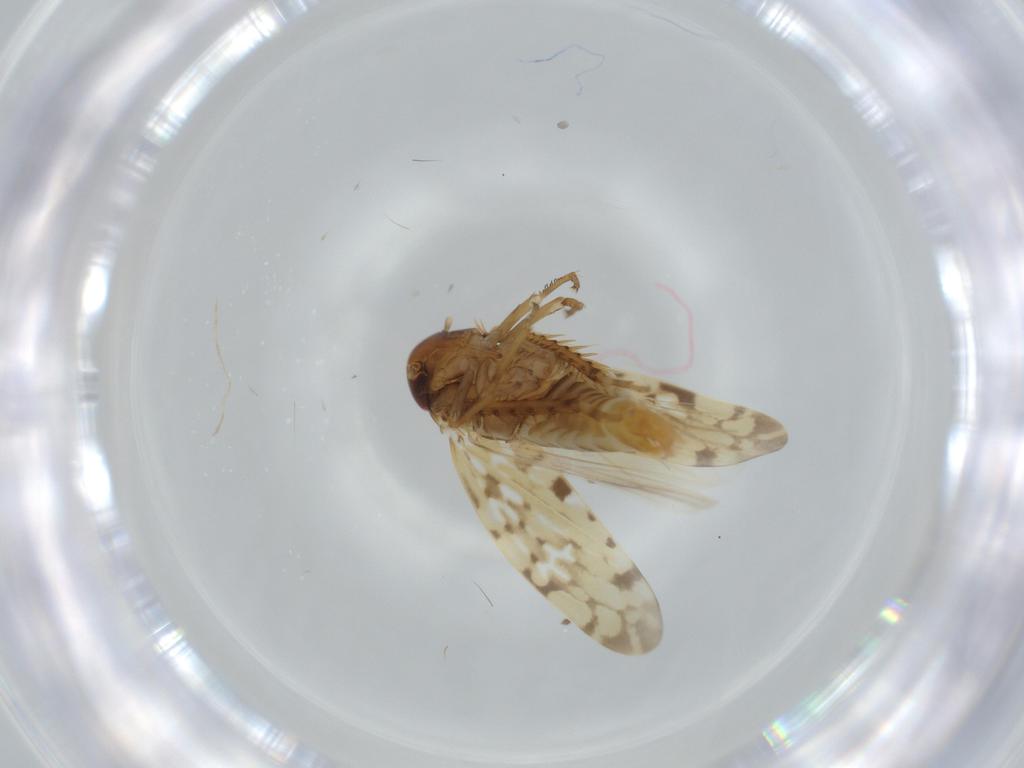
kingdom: Animalia
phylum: Arthropoda
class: Insecta
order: Hemiptera
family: Cicadellidae
